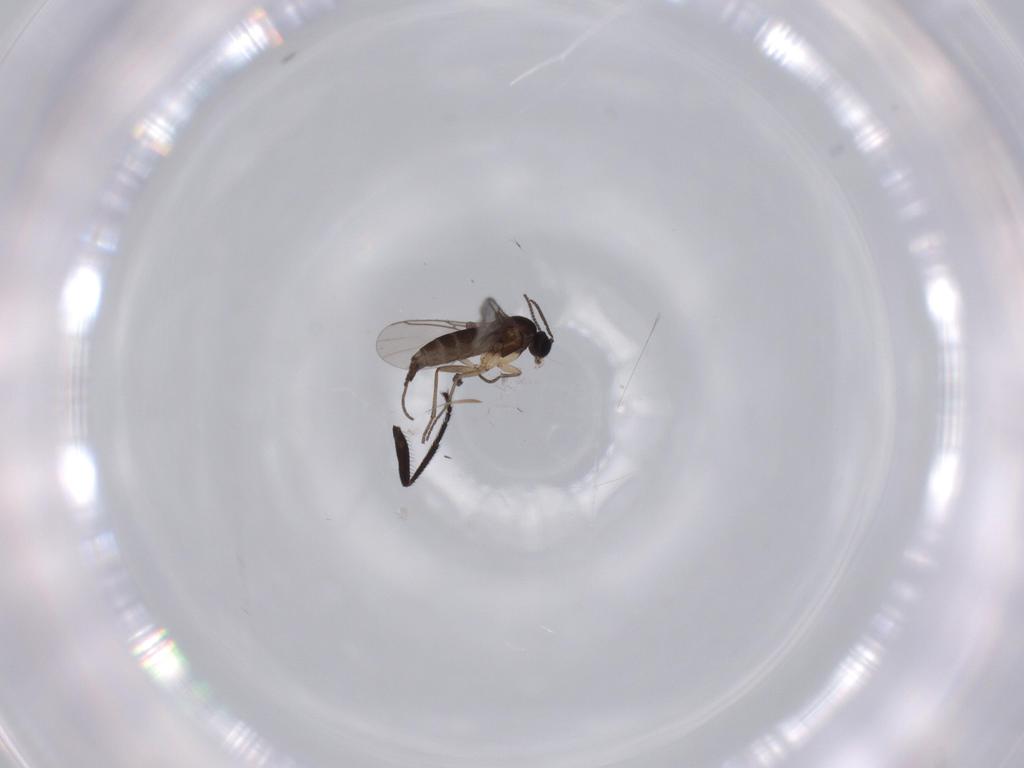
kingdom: Animalia
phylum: Arthropoda
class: Insecta
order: Diptera
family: Sciaridae
